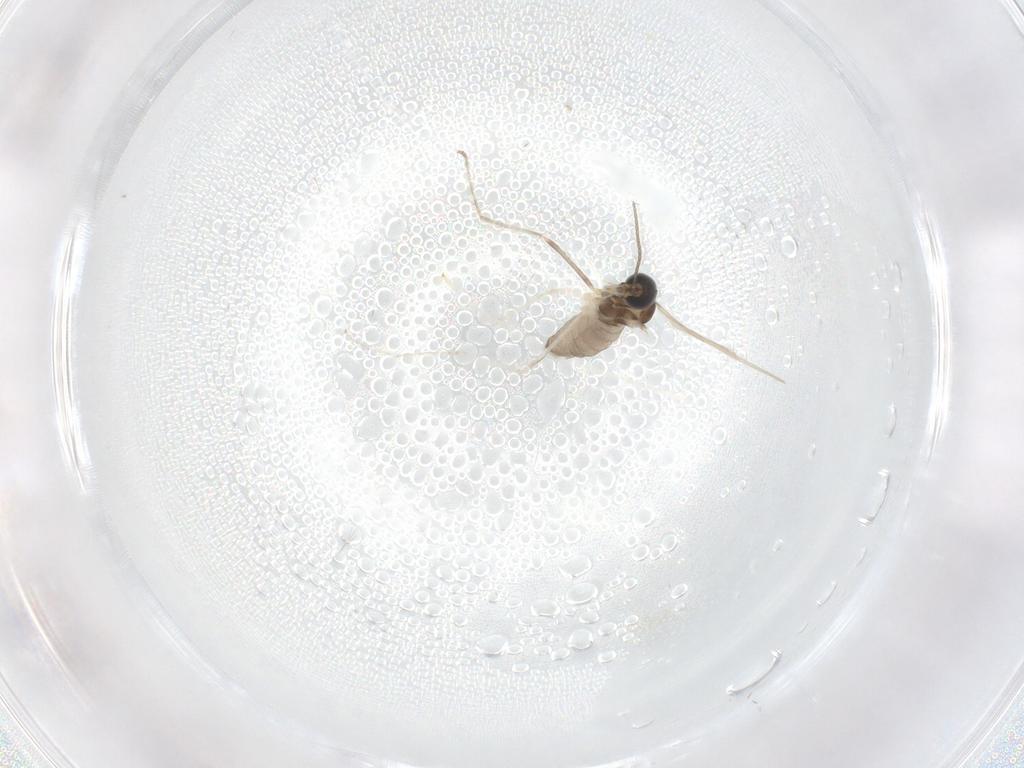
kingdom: Animalia
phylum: Arthropoda
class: Insecta
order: Diptera
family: Cecidomyiidae
